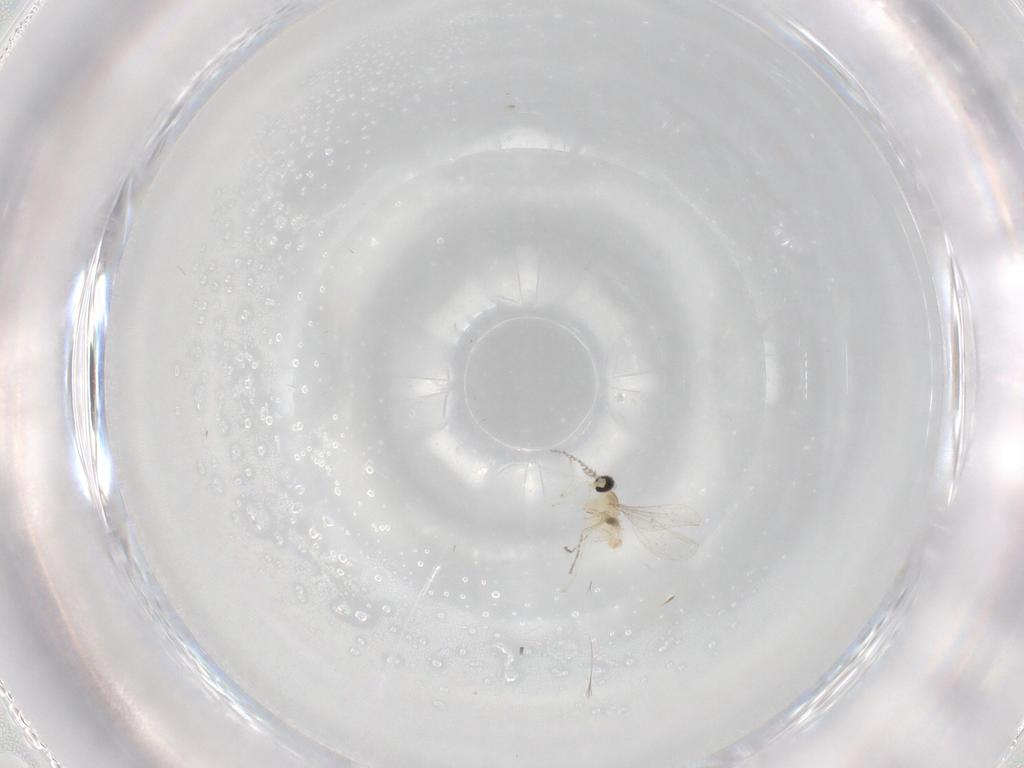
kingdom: Animalia
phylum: Arthropoda
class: Insecta
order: Diptera
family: Cecidomyiidae
